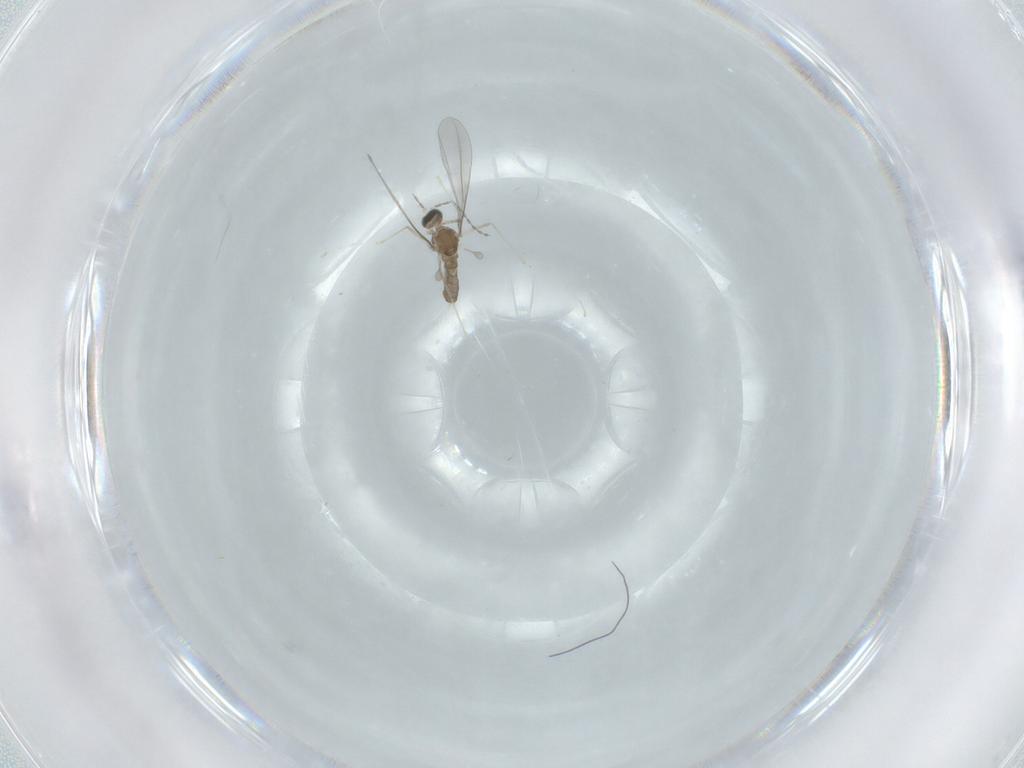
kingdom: Animalia
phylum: Arthropoda
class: Insecta
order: Diptera
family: Cecidomyiidae
